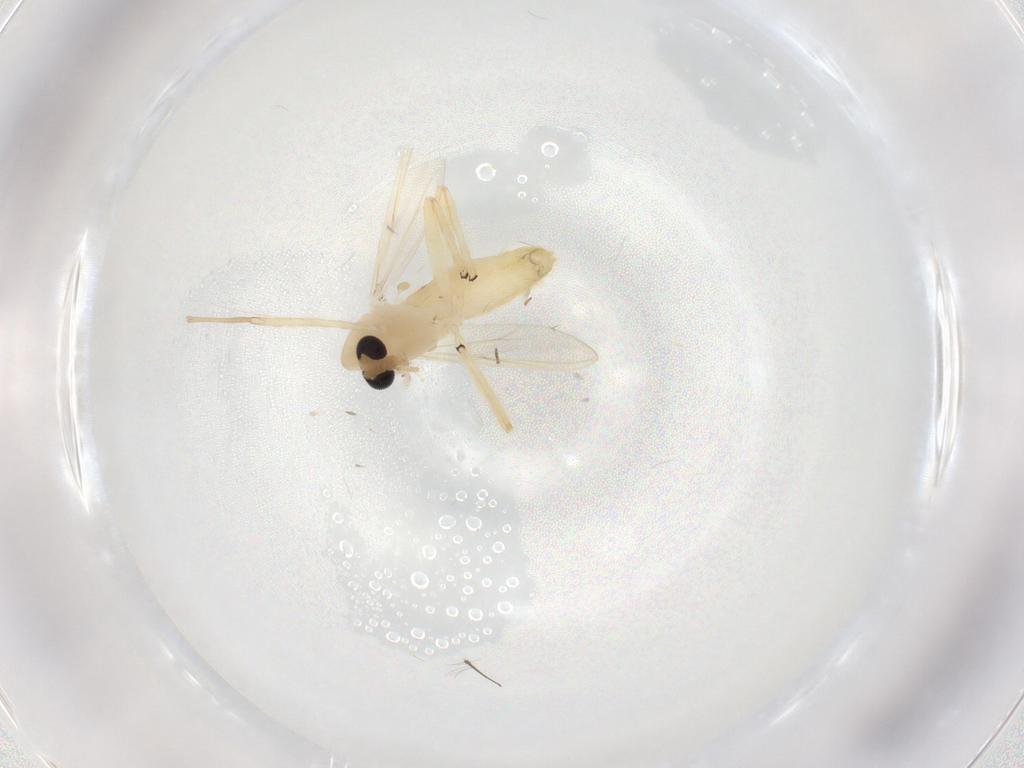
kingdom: Animalia
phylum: Arthropoda
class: Insecta
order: Diptera
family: Chironomidae
